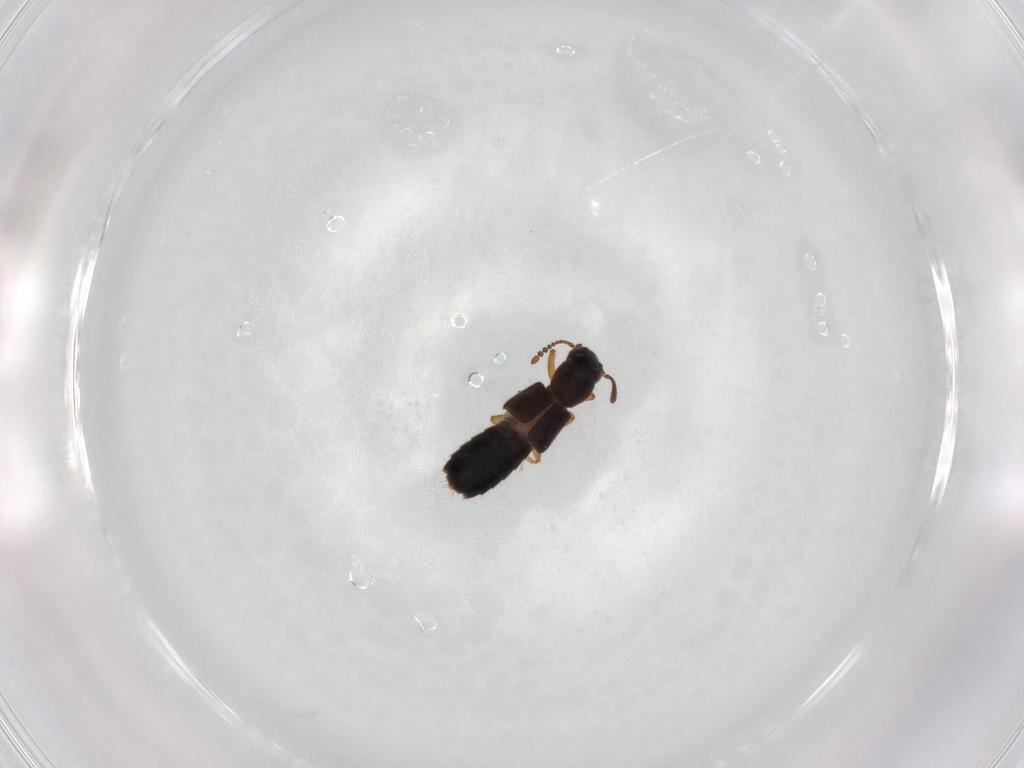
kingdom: Animalia
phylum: Arthropoda
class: Insecta
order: Coleoptera
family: Staphylinidae
